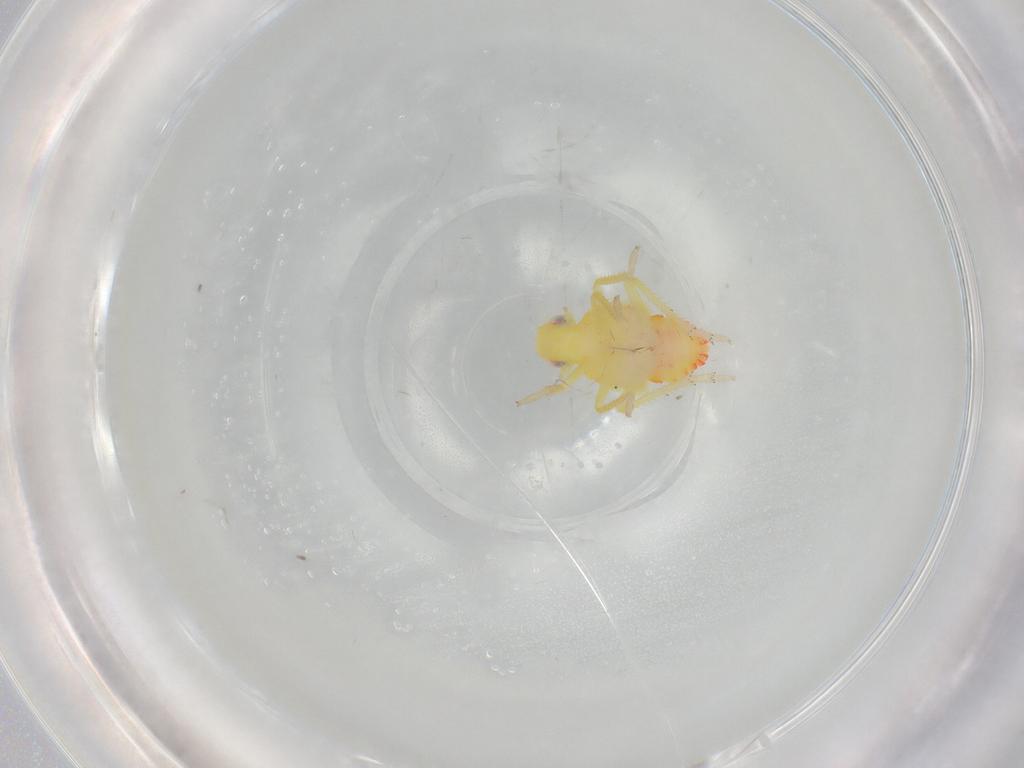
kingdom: Animalia
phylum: Arthropoda
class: Insecta
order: Hemiptera
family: Tropiduchidae
